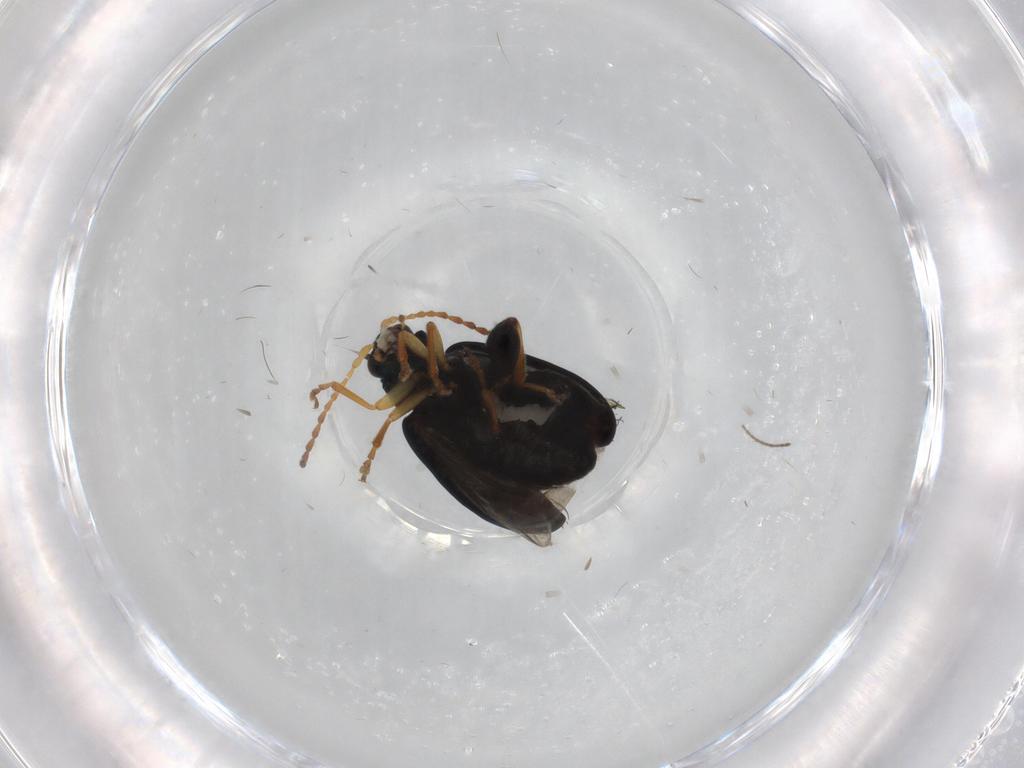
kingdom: Animalia
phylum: Arthropoda
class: Insecta
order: Coleoptera
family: Chrysomelidae
